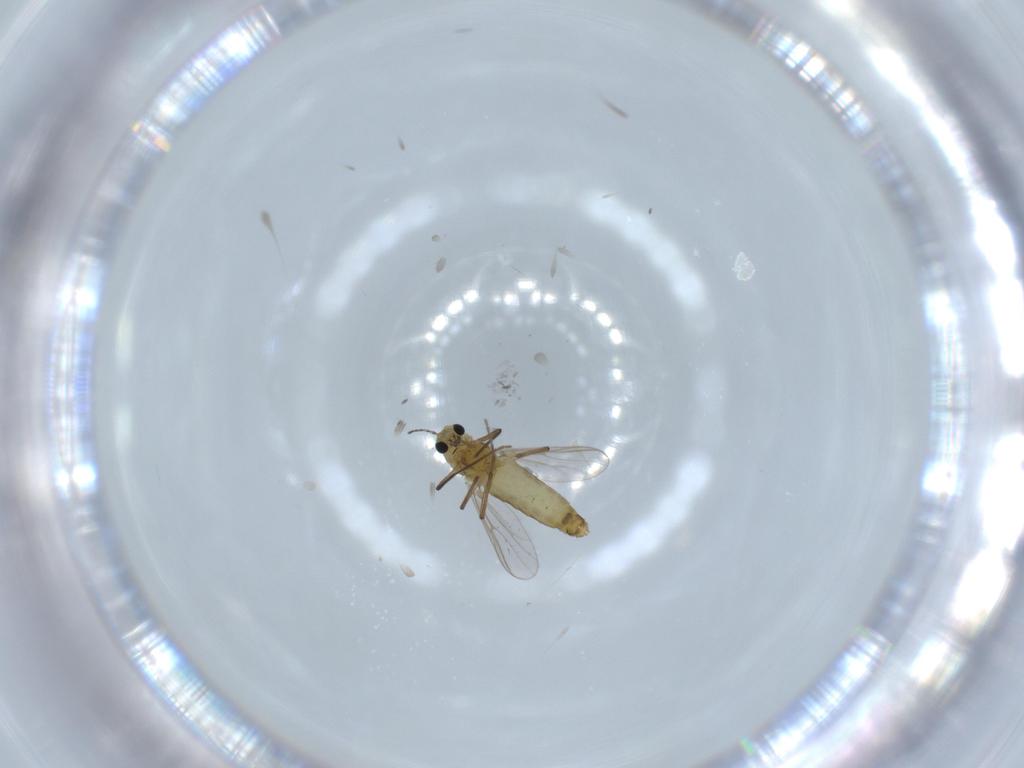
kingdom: Animalia
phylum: Arthropoda
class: Insecta
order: Diptera
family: Chironomidae
